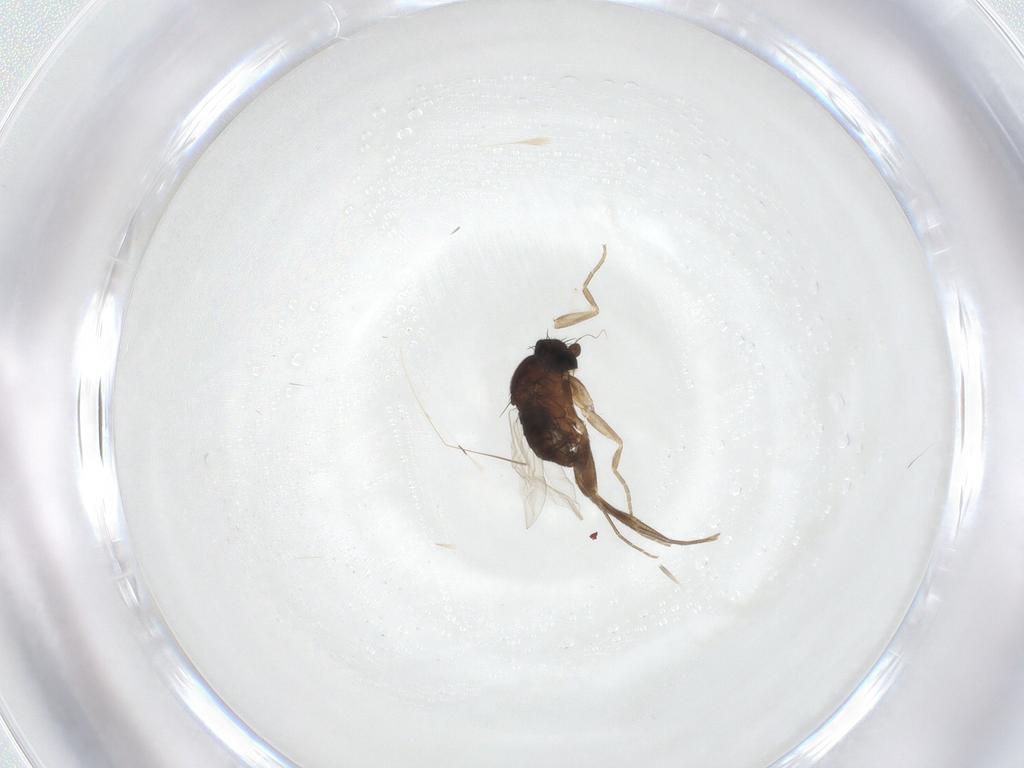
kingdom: Animalia
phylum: Arthropoda
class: Insecta
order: Diptera
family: Phoridae
